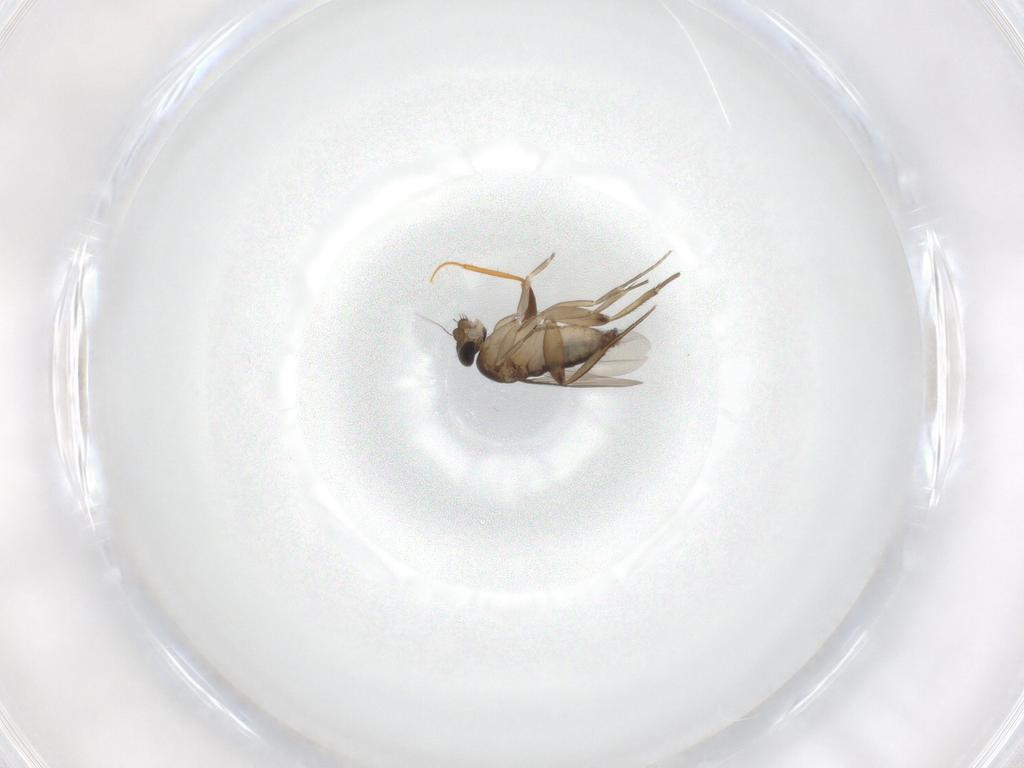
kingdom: Animalia
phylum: Arthropoda
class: Insecta
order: Diptera
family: Phoridae
